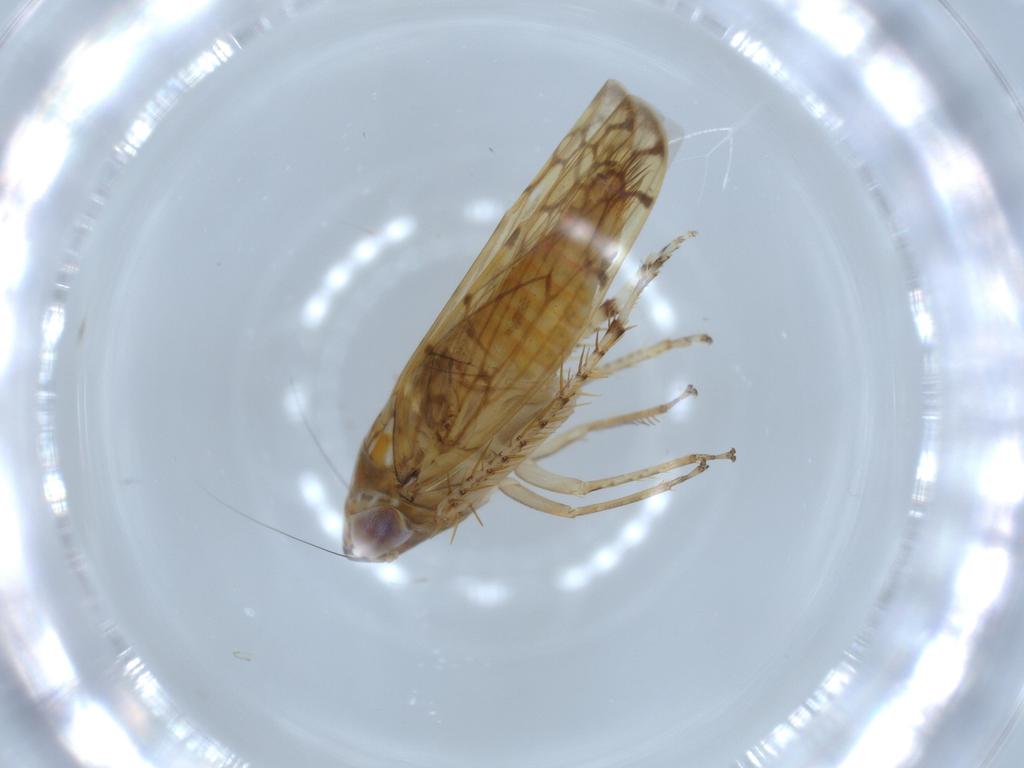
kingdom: Animalia
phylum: Arthropoda
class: Insecta
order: Hemiptera
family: Cicadellidae
